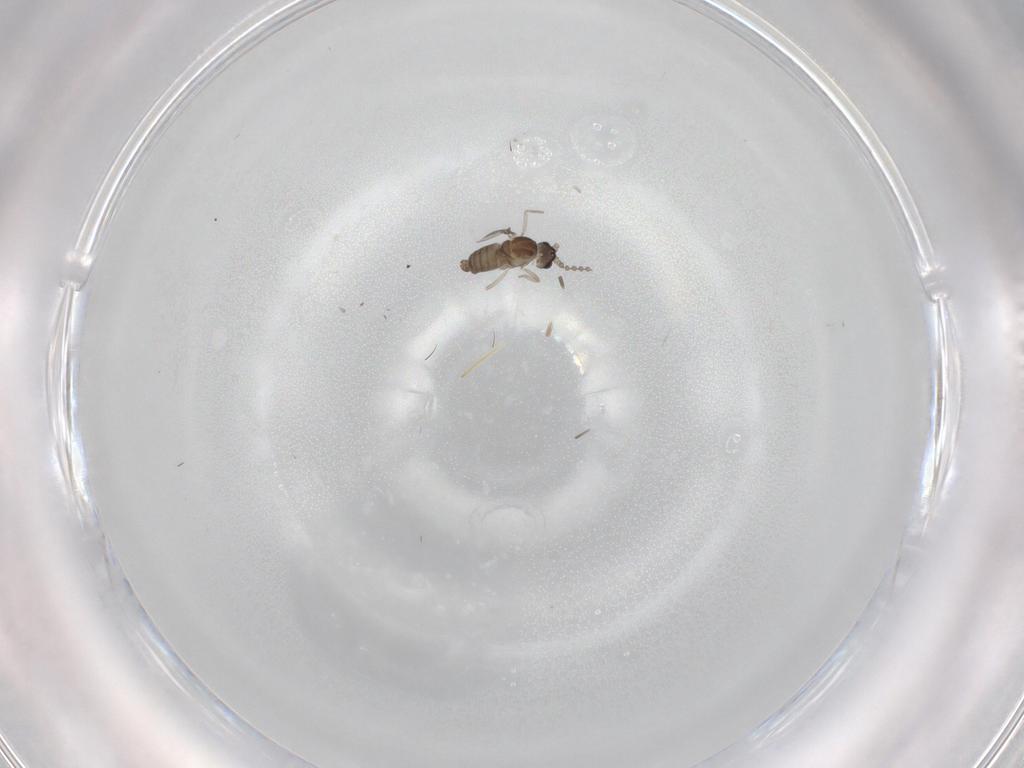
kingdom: Animalia
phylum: Arthropoda
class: Insecta
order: Diptera
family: Cecidomyiidae
